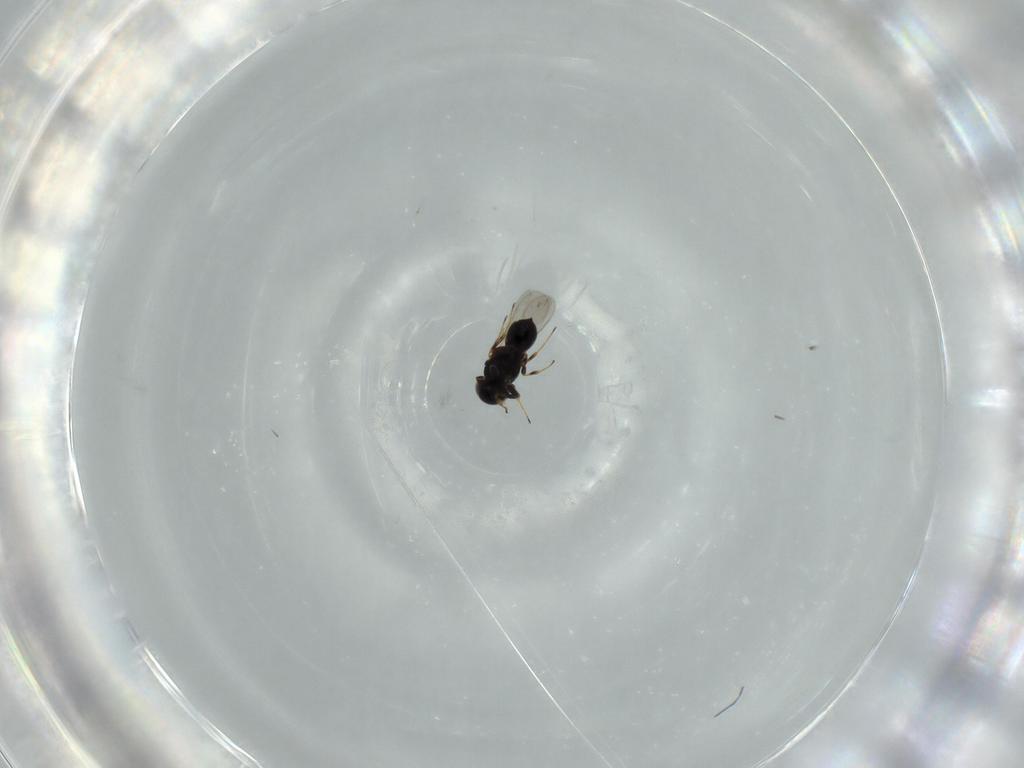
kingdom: Animalia
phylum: Arthropoda
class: Insecta
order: Hymenoptera
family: Scelionidae
